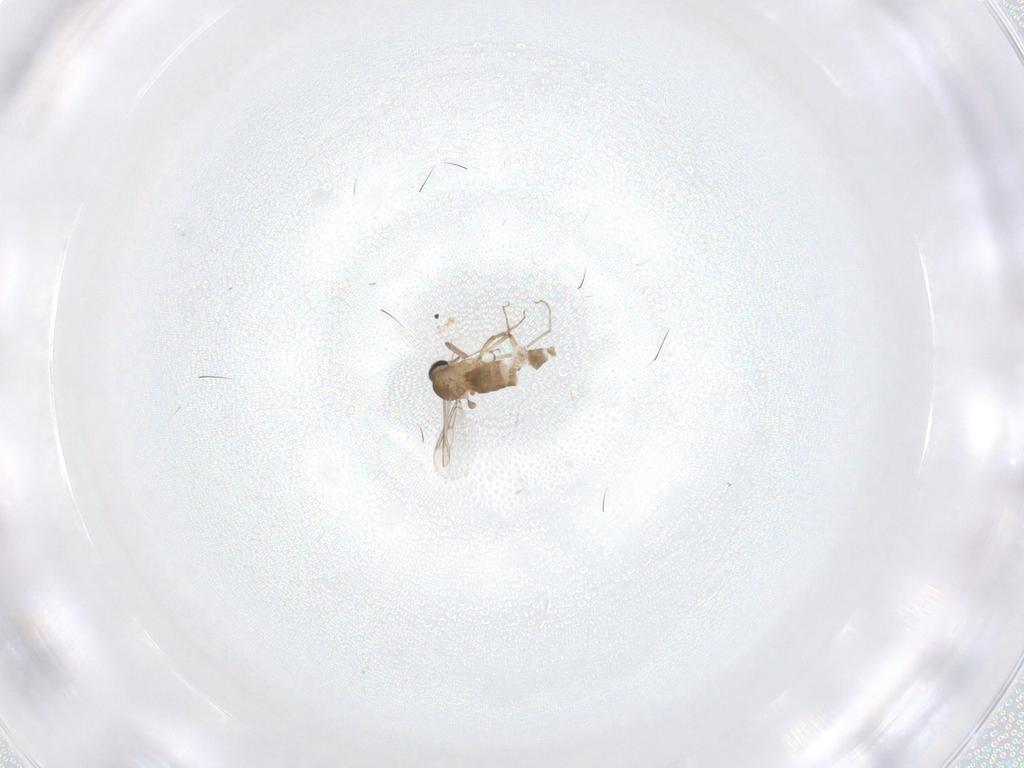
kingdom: Animalia
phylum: Arthropoda
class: Insecta
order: Diptera
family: Ceratopogonidae
